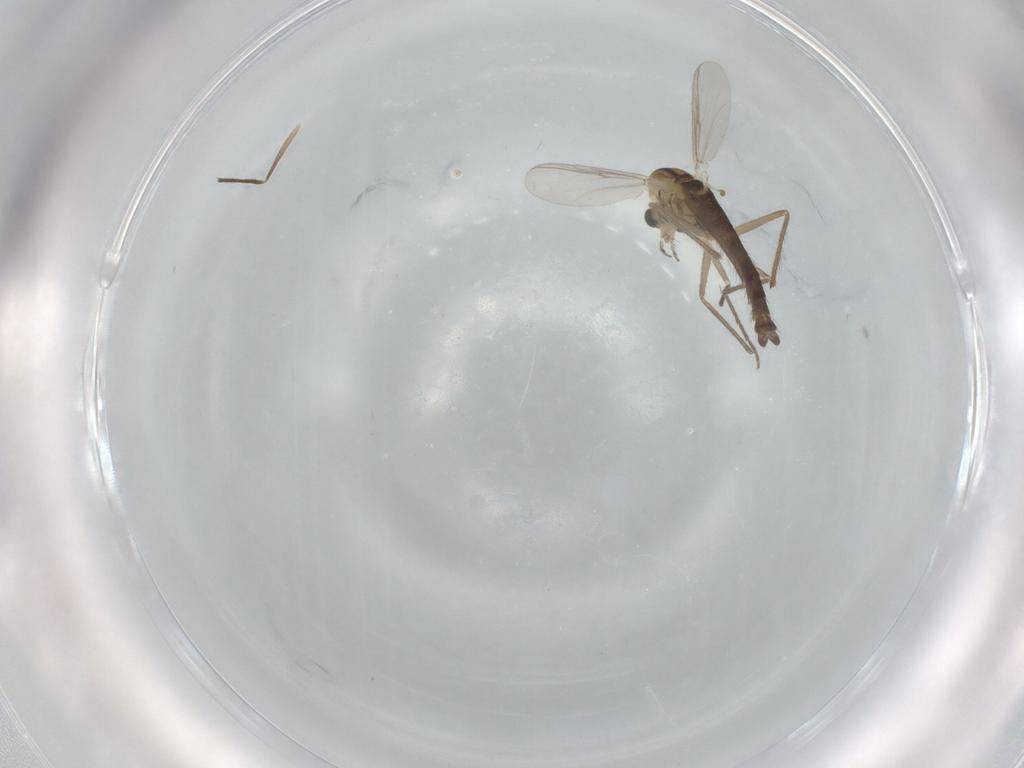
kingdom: Animalia
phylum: Arthropoda
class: Insecta
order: Diptera
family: Chironomidae
